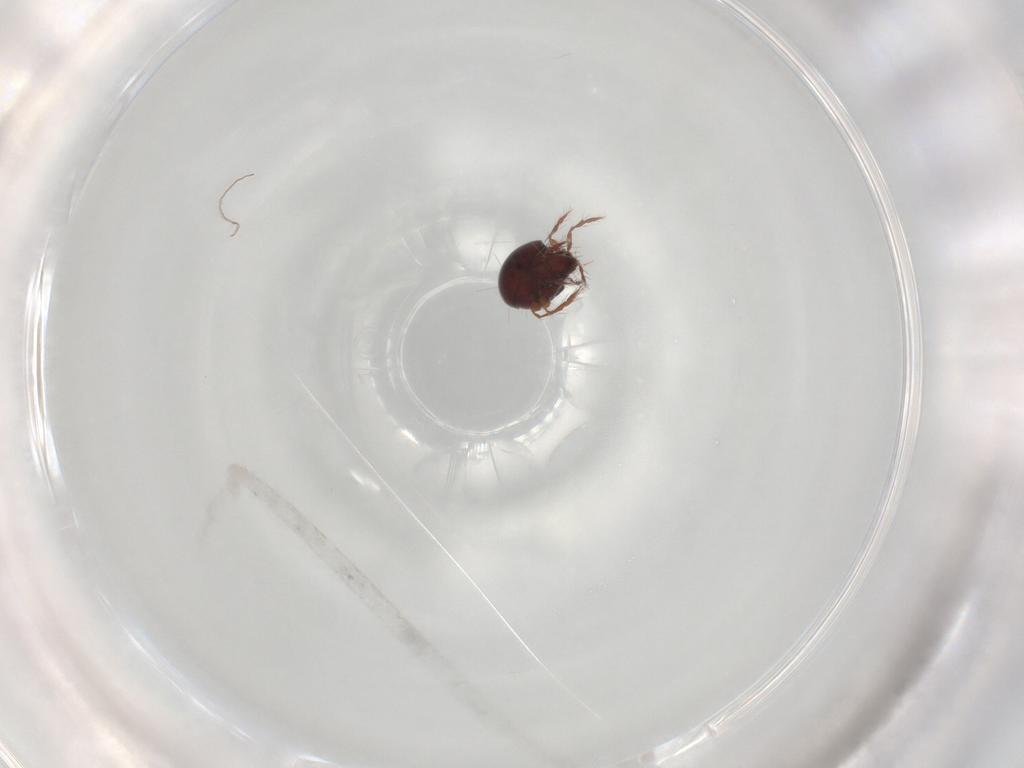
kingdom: Animalia
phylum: Arthropoda
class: Arachnida
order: Sarcoptiformes
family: Ceratoppiidae
